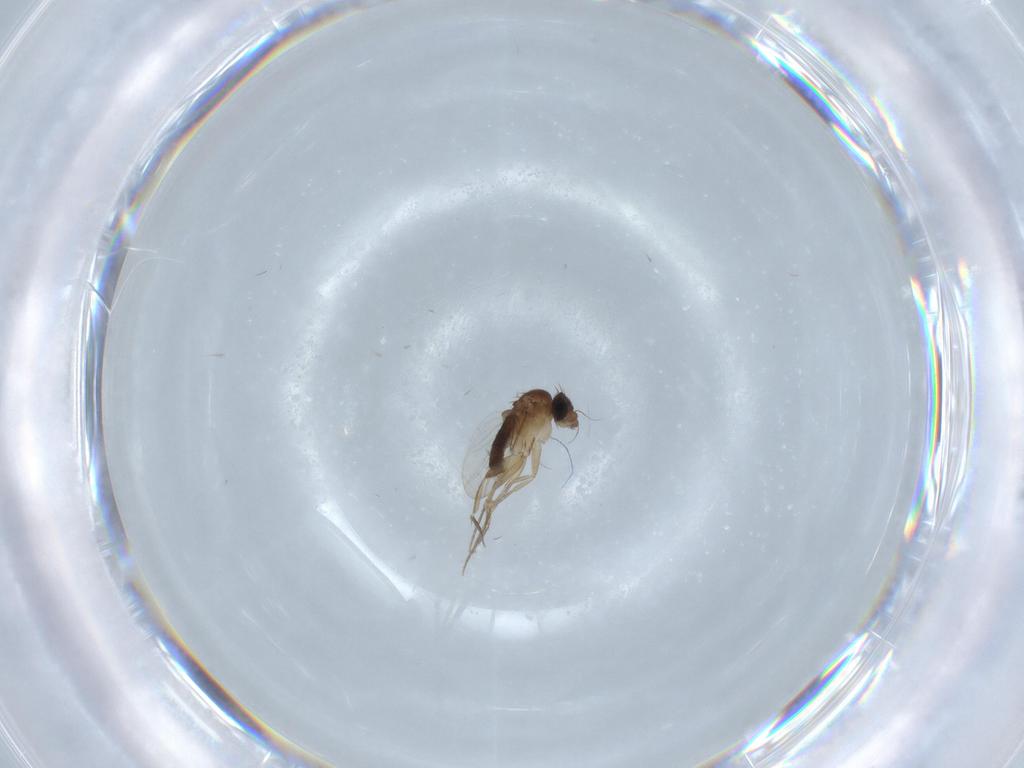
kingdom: Animalia
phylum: Arthropoda
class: Insecta
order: Diptera
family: Phoridae
